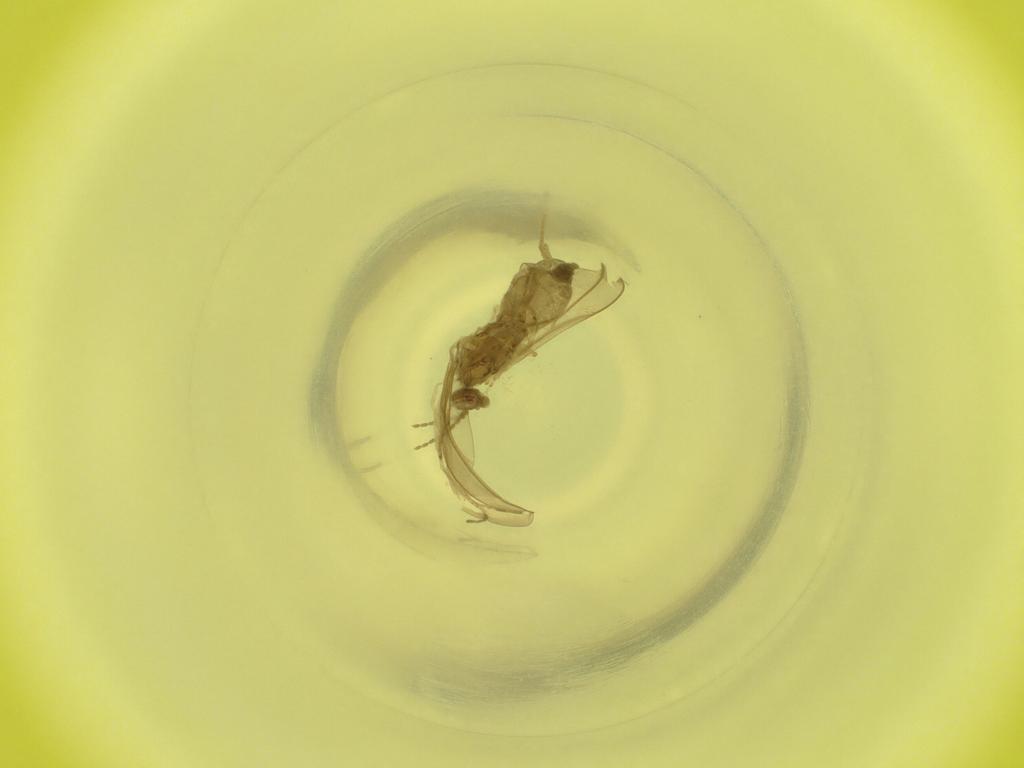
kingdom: Animalia
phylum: Arthropoda
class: Insecta
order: Diptera
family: Cecidomyiidae
